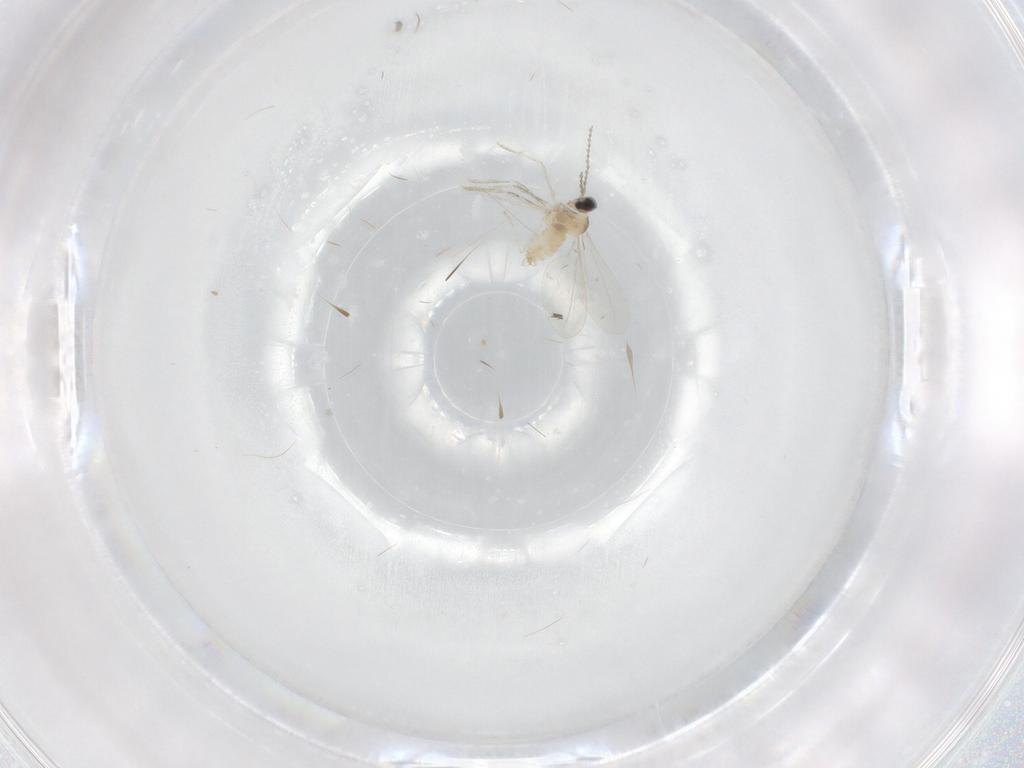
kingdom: Animalia
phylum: Arthropoda
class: Insecta
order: Diptera
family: Cecidomyiidae
